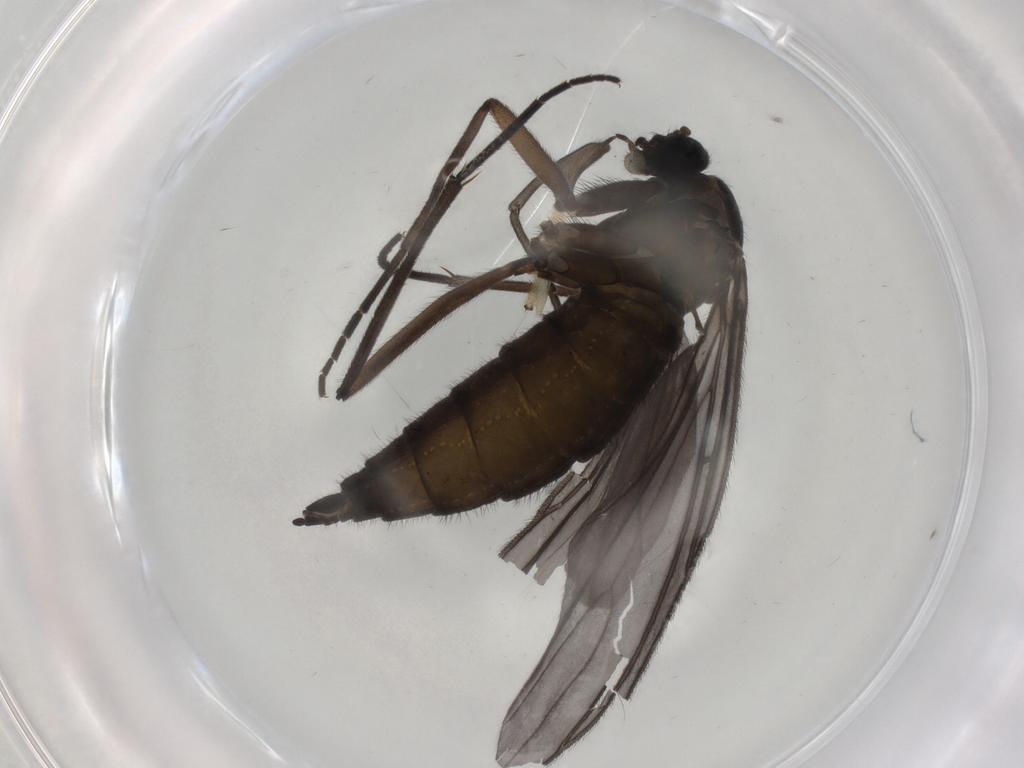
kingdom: Animalia
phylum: Arthropoda
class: Insecta
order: Diptera
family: Sciaridae
